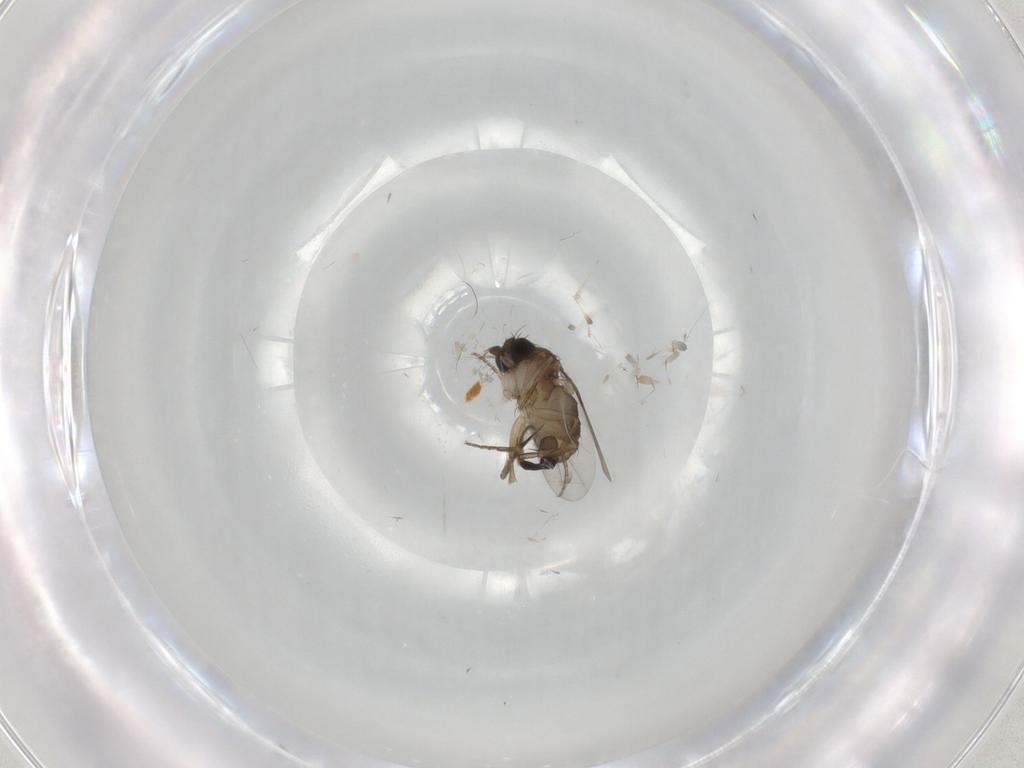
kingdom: Animalia
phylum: Arthropoda
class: Insecta
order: Diptera
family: Phoridae
